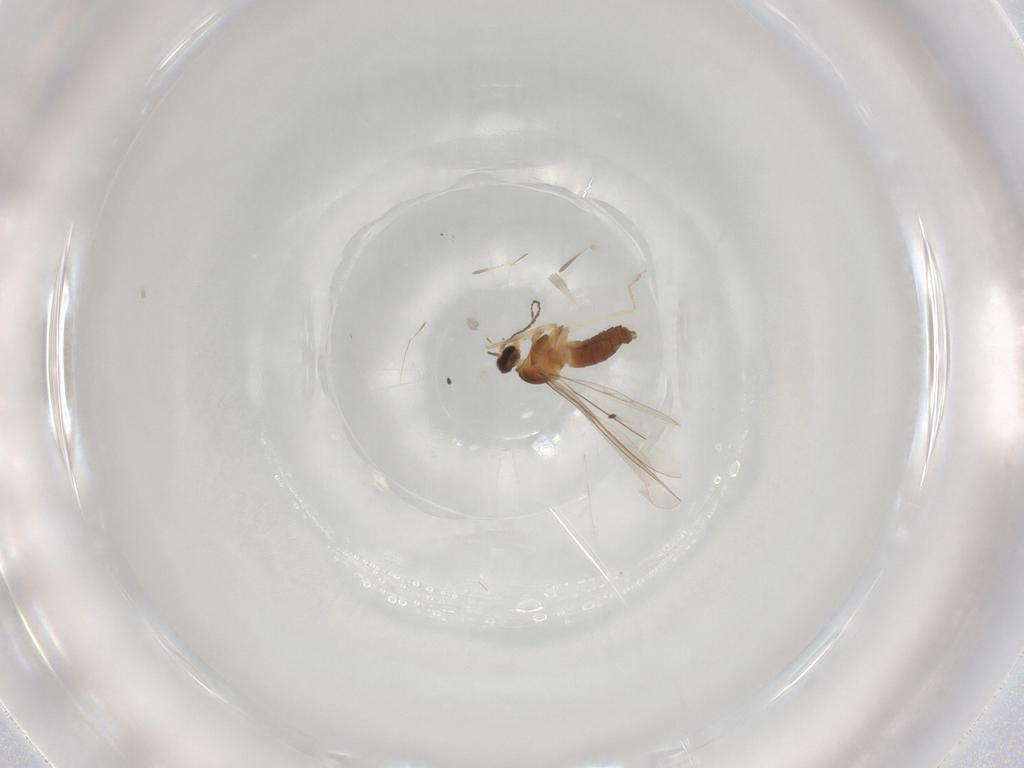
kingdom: Animalia
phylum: Arthropoda
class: Insecta
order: Diptera
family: Cecidomyiidae
